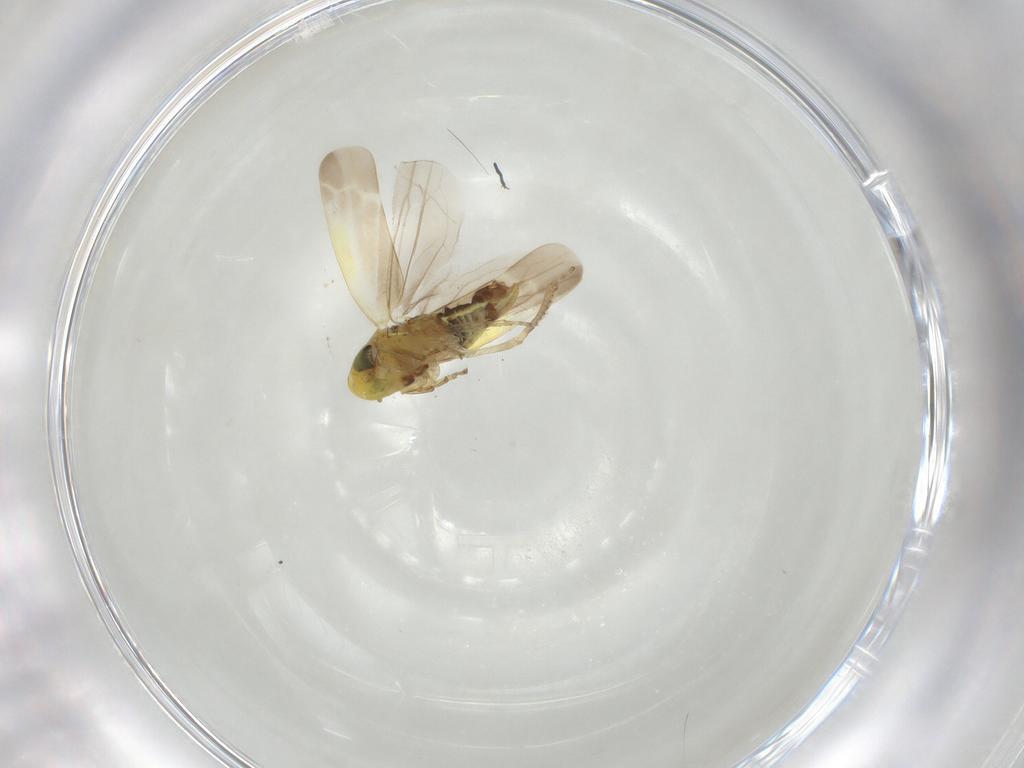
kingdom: Animalia
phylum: Arthropoda
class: Insecta
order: Hemiptera
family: Cicadellidae
